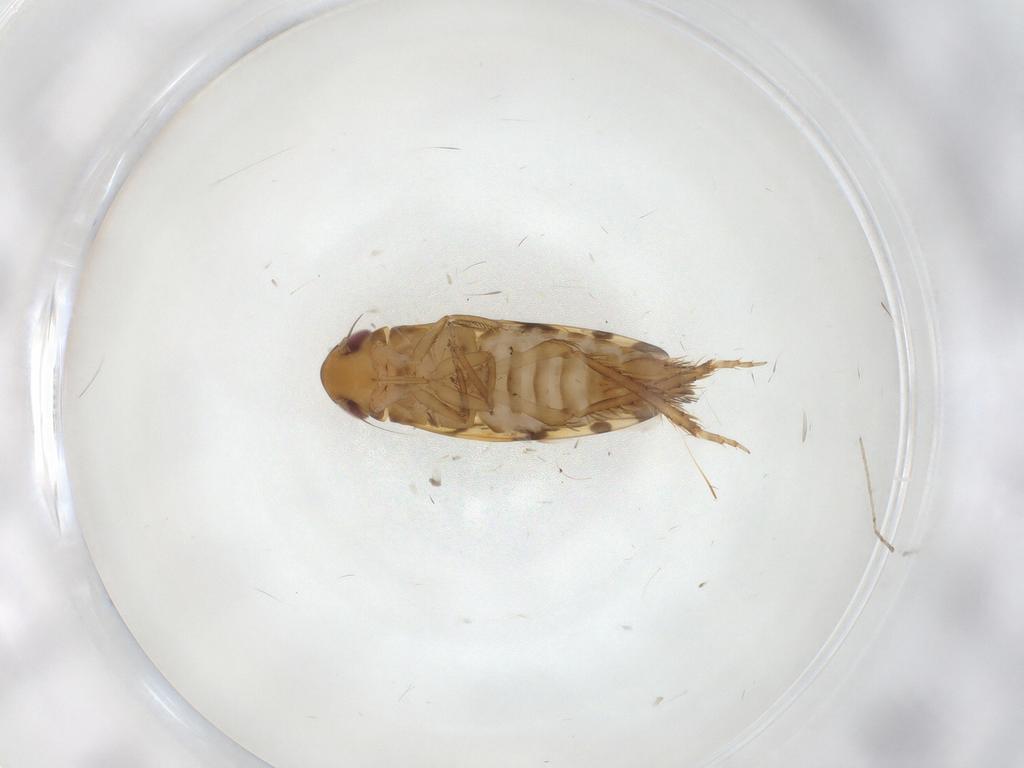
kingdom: Animalia
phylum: Arthropoda
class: Insecta
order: Hemiptera
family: Cicadellidae
